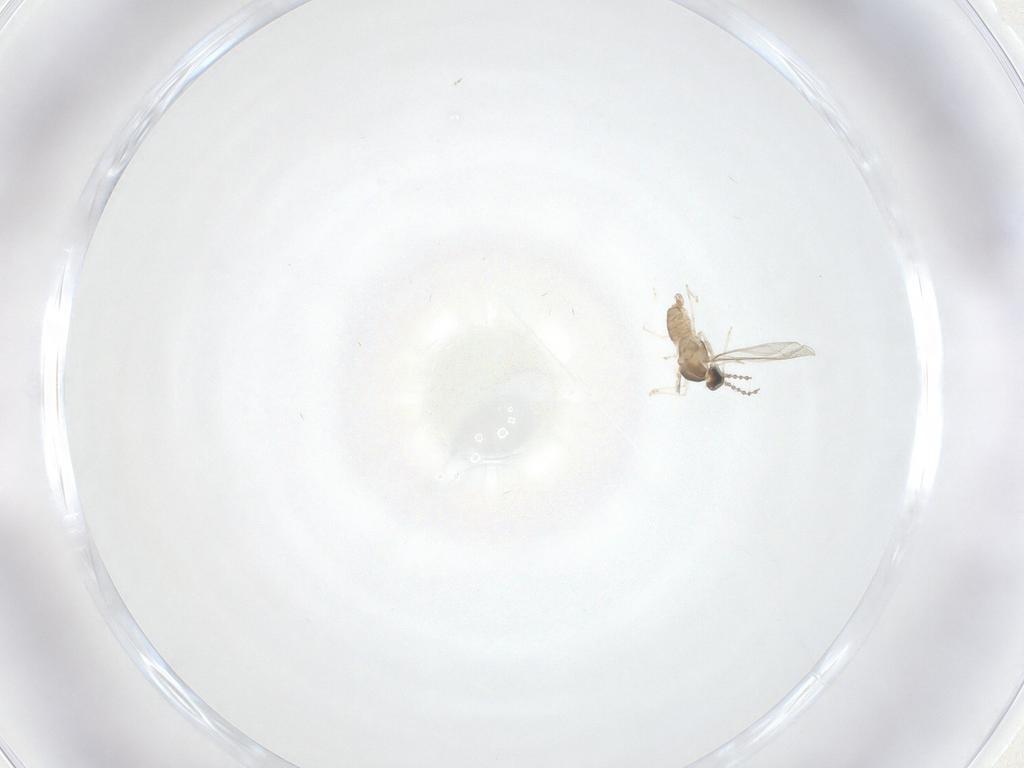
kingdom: Animalia
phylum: Arthropoda
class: Insecta
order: Diptera
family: Cecidomyiidae
